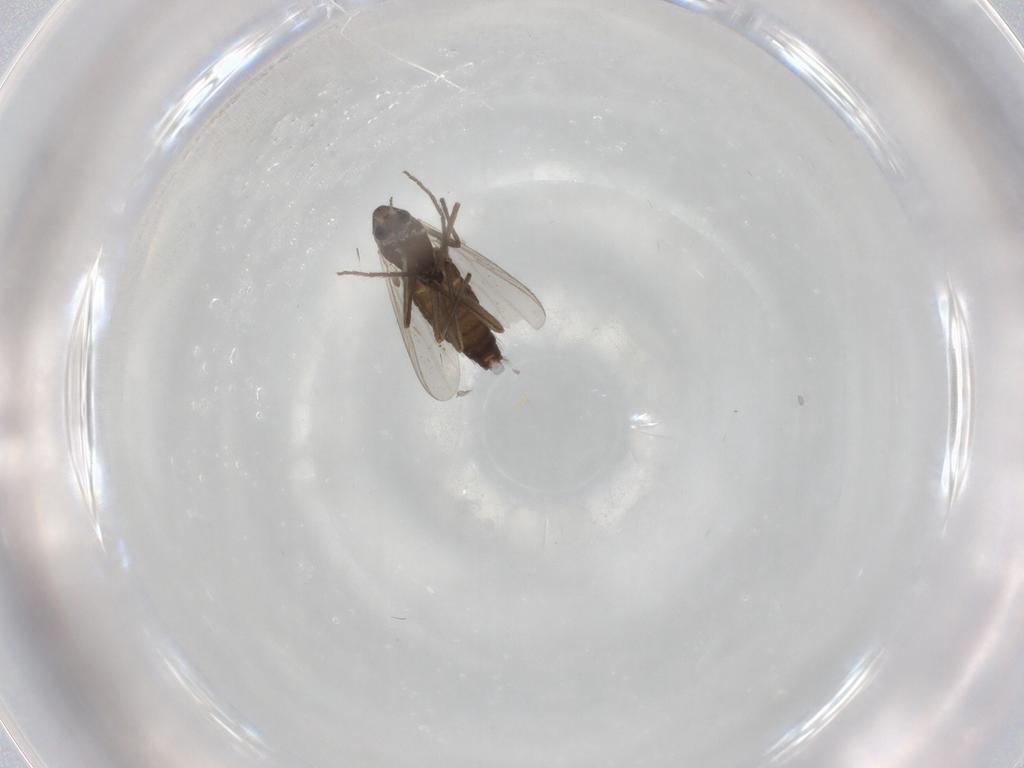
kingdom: Animalia
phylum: Arthropoda
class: Insecta
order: Diptera
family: Chironomidae
